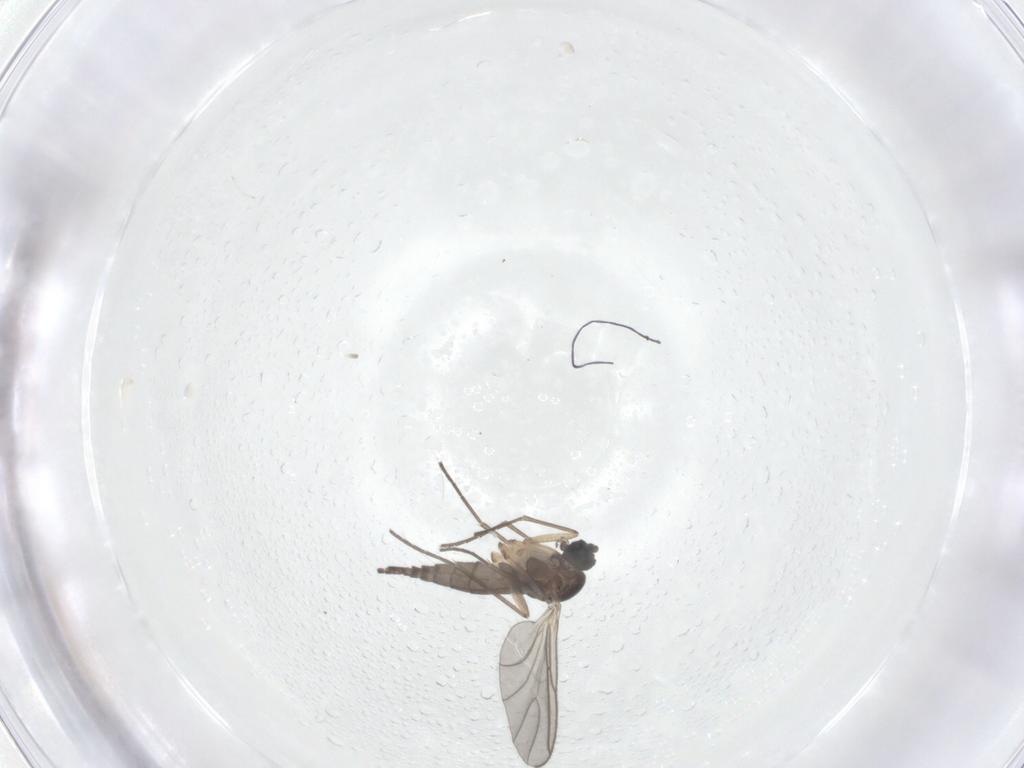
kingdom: Animalia
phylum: Arthropoda
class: Insecta
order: Diptera
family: Sciaridae
